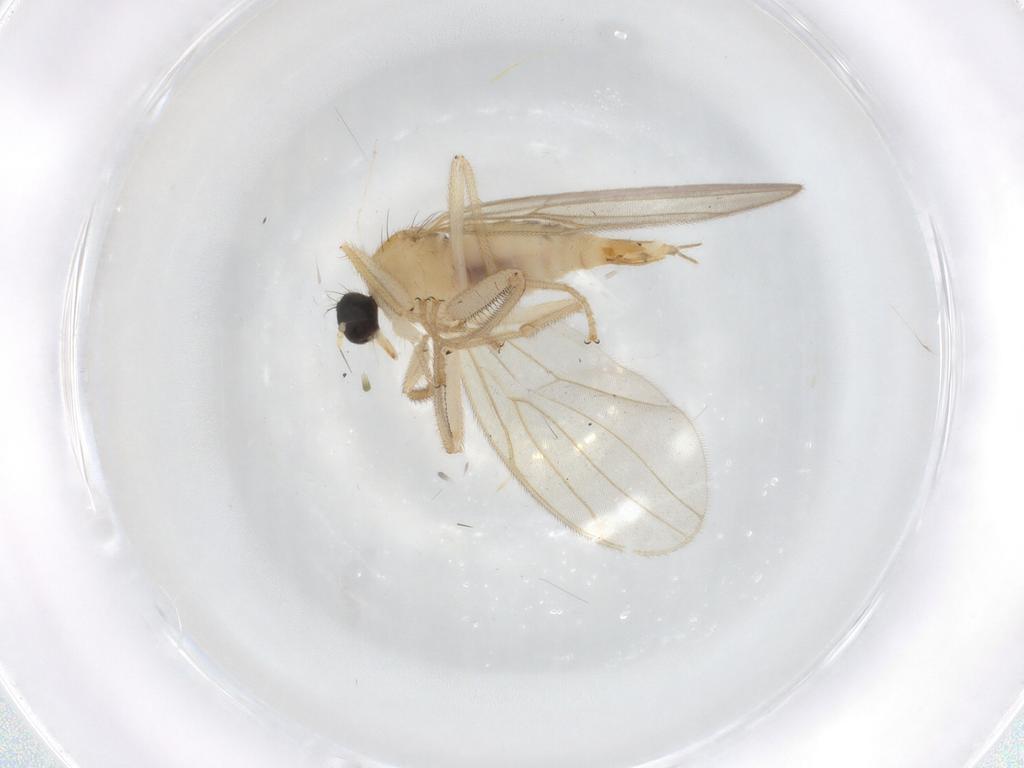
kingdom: Animalia
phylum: Arthropoda
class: Insecta
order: Diptera
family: Hybotidae
